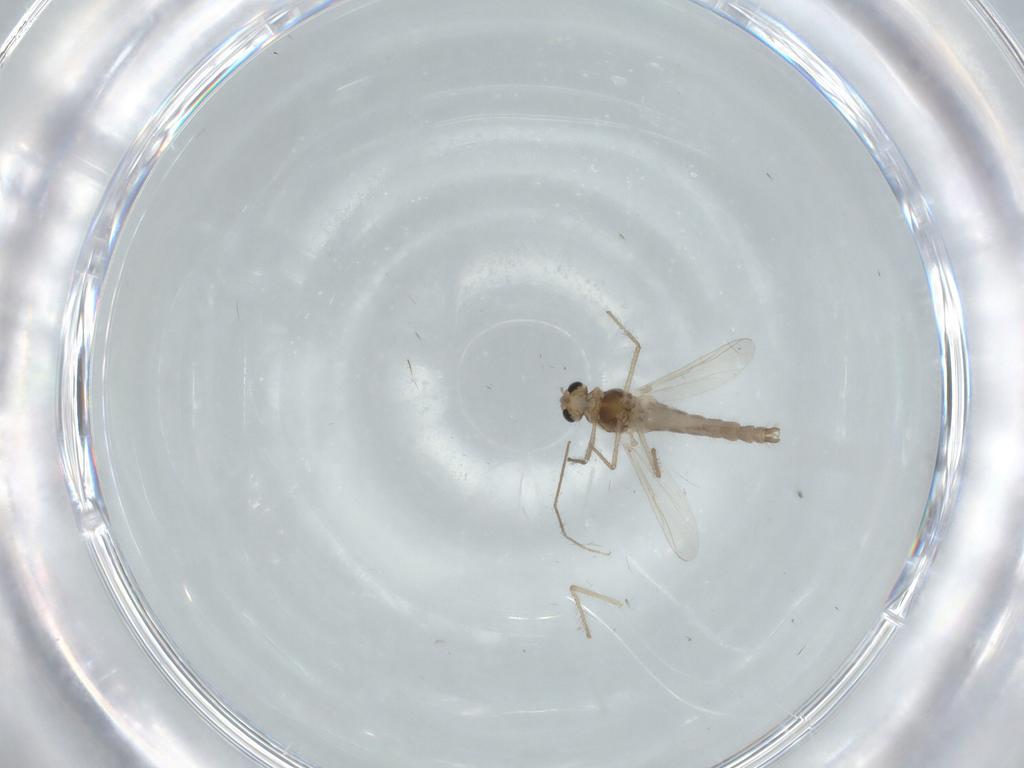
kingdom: Animalia
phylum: Arthropoda
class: Insecta
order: Diptera
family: Chironomidae
